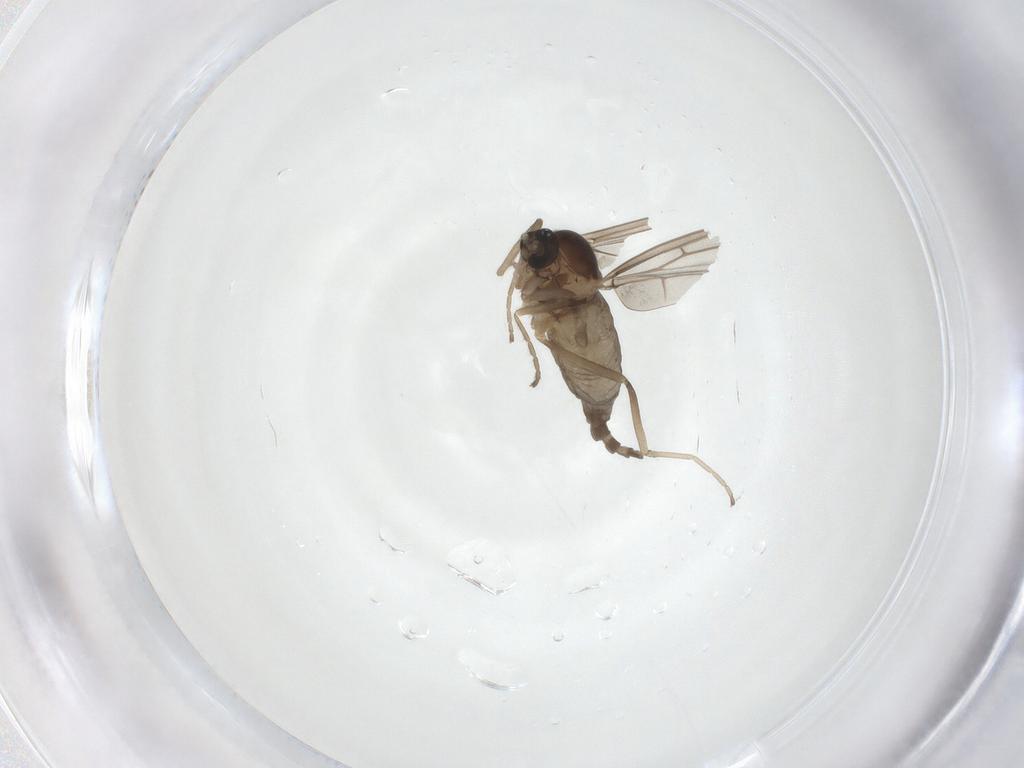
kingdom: Animalia
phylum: Arthropoda
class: Insecta
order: Diptera
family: Cecidomyiidae
